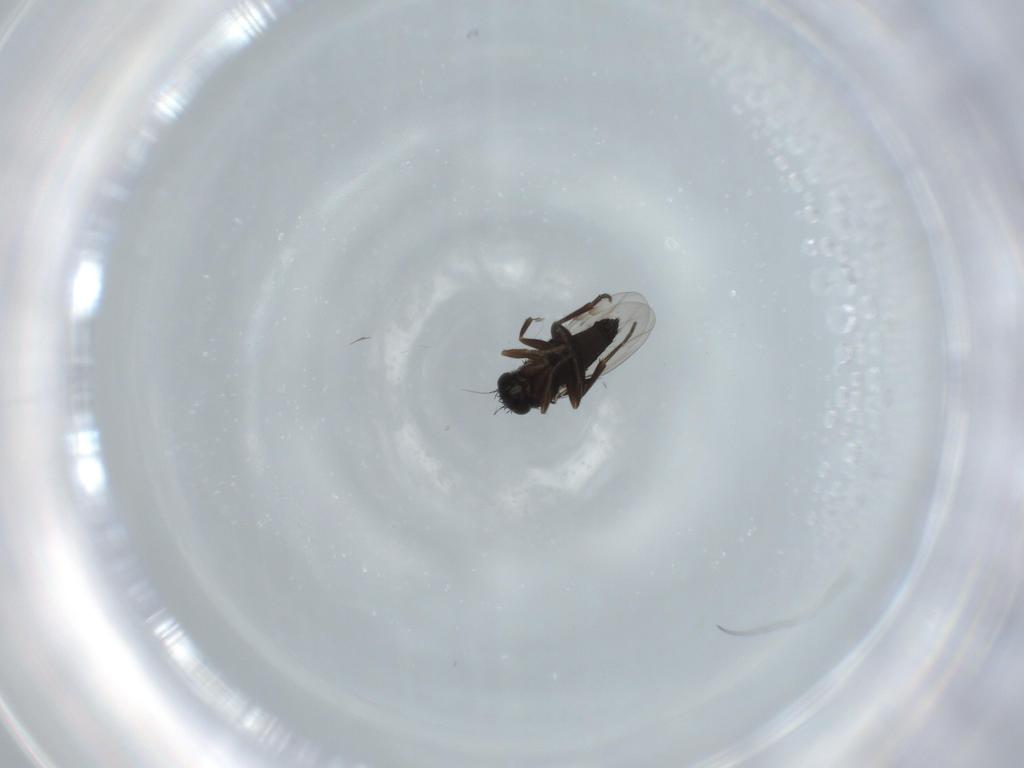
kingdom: Animalia
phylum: Arthropoda
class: Insecta
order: Diptera
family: Phoridae
